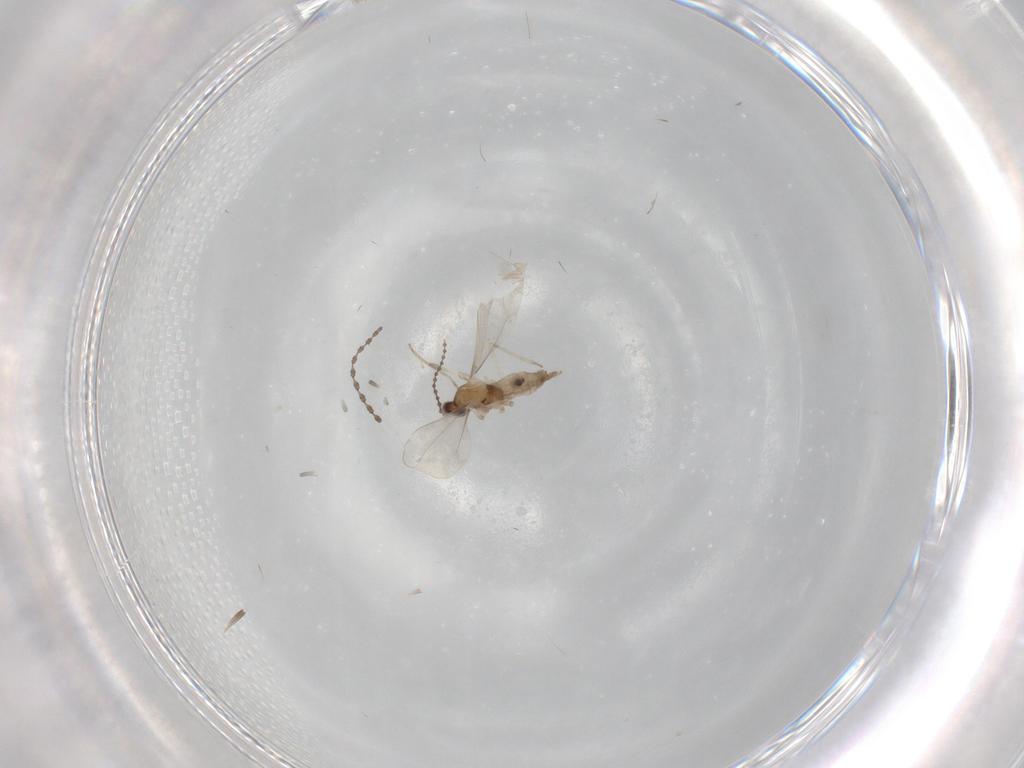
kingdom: Animalia
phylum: Arthropoda
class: Insecta
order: Diptera
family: Cecidomyiidae
